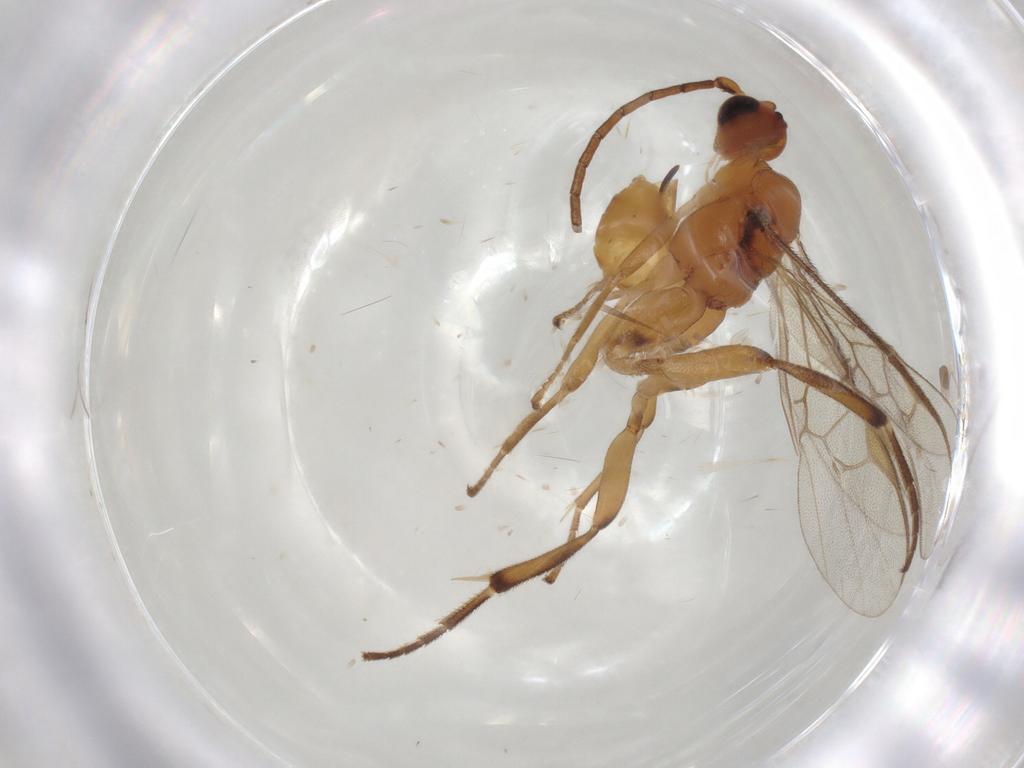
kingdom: Animalia
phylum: Arthropoda
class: Insecta
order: Hymenoptera
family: Braconidae
